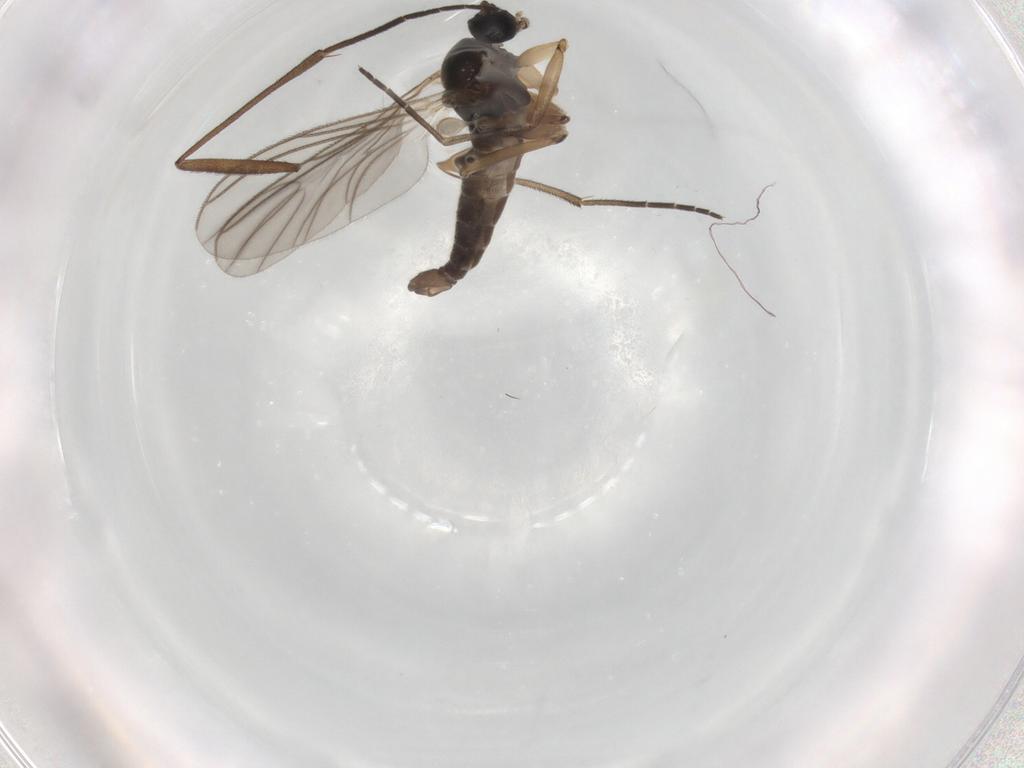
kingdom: Animalia
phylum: Arthropoda
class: Insecta
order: Diptera
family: Sciaridae
